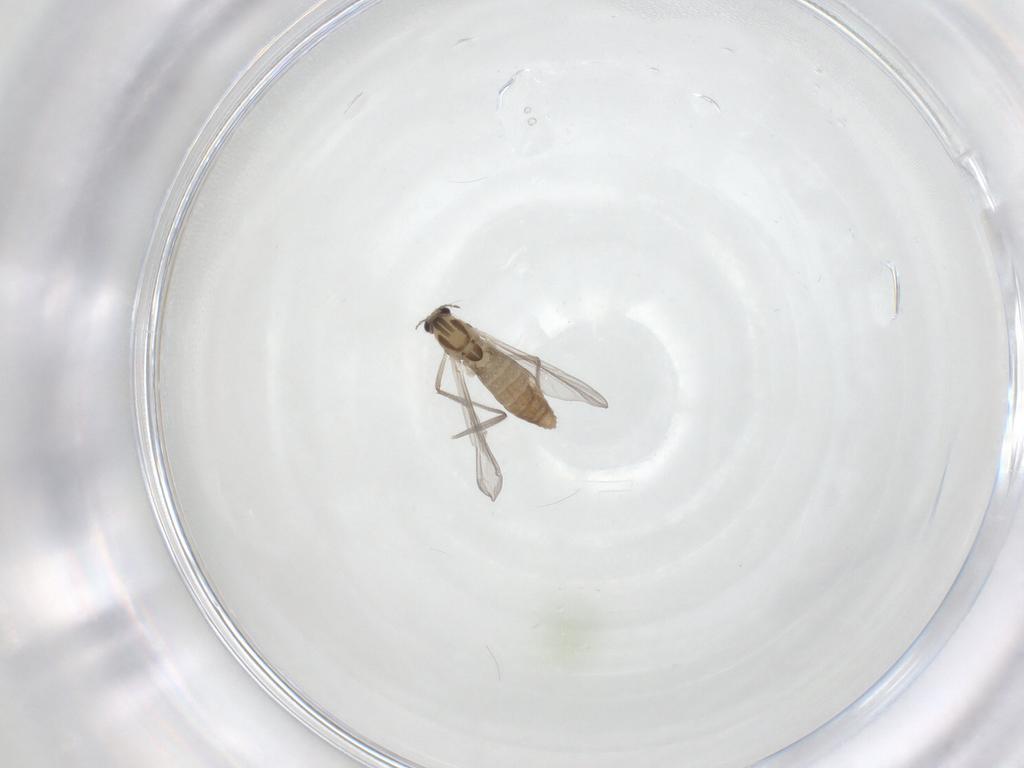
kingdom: Animalia
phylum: Arthropoda
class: Insecta
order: Diptera
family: Chironomidae
